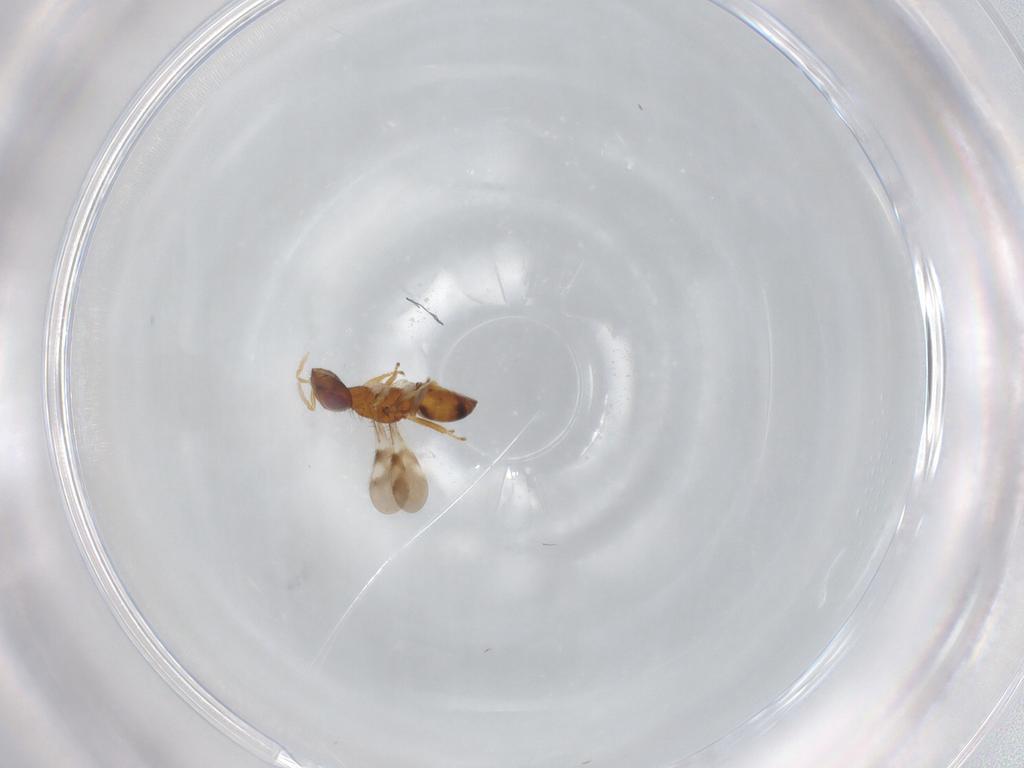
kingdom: Animalia
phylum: Arthropoda
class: Insecta
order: Hymenoptera
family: Eulophidae
